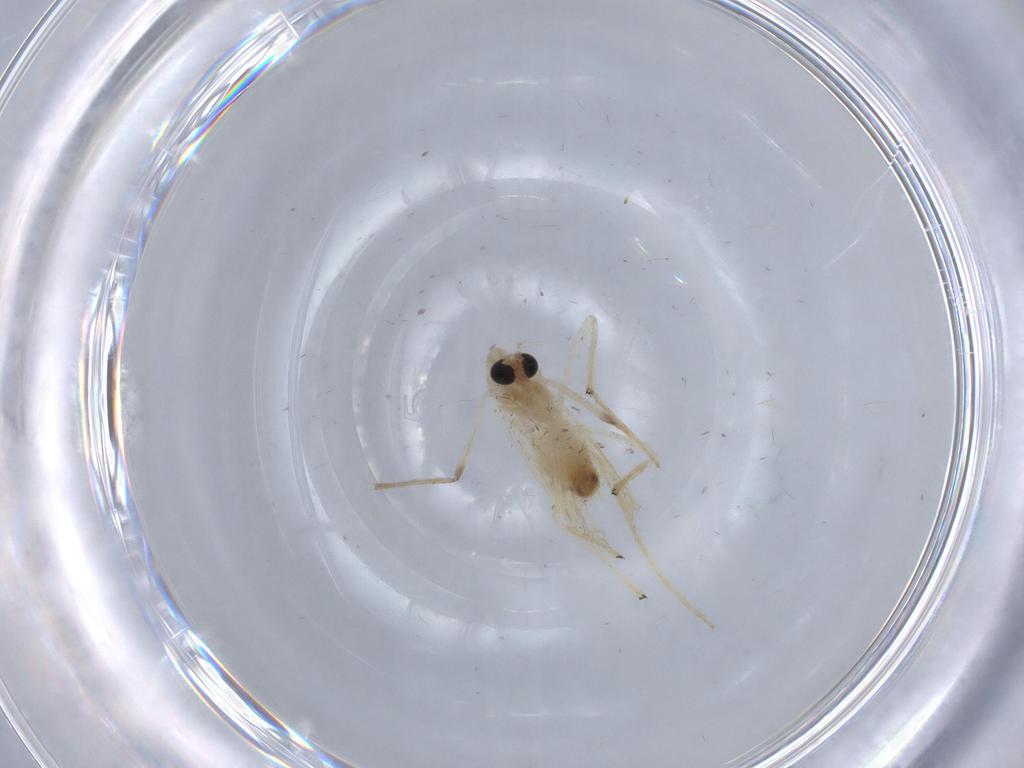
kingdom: Animalia
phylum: Arthropoda
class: Insecta
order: Diptera
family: Chironomidae
